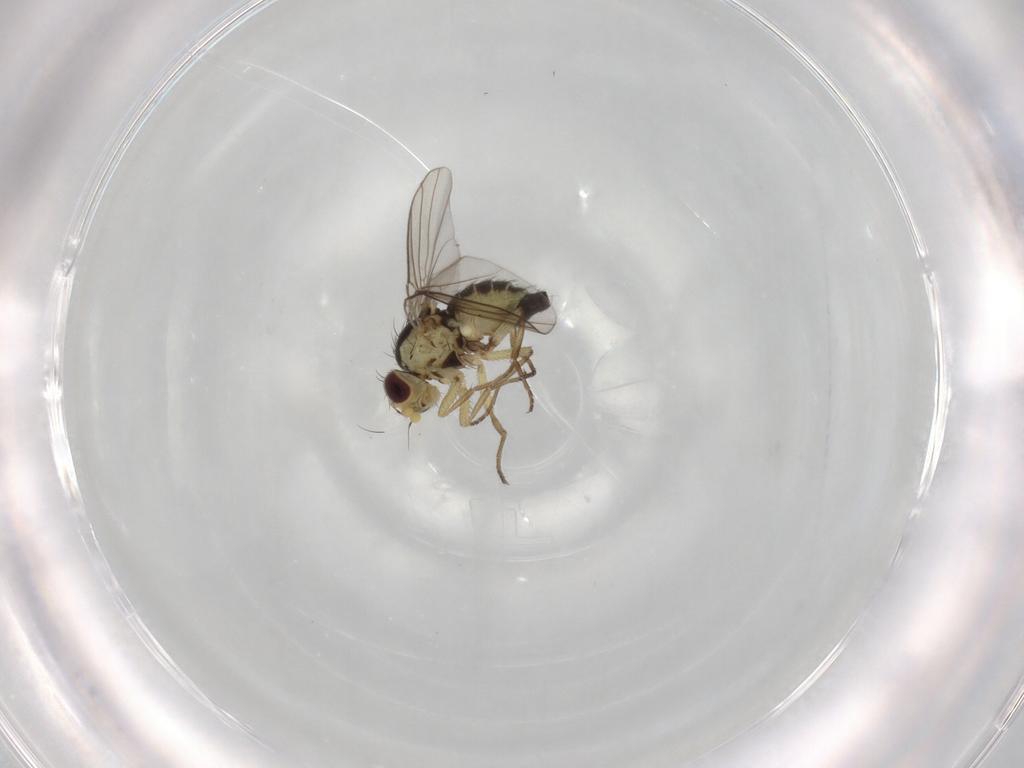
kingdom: Animalia
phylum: Arthropoda
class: Insecta
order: Diptera
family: Agromyzidae
